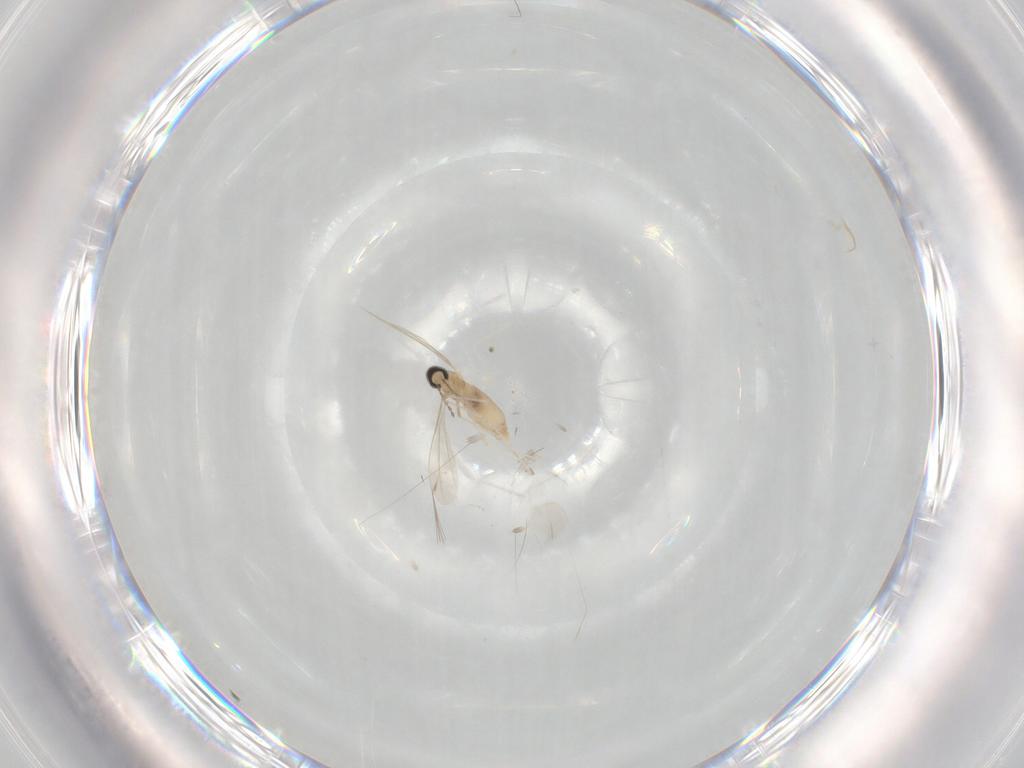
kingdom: Animalia
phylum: Arthropoda
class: Insecta
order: Diptera
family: Cecidomyiidae
